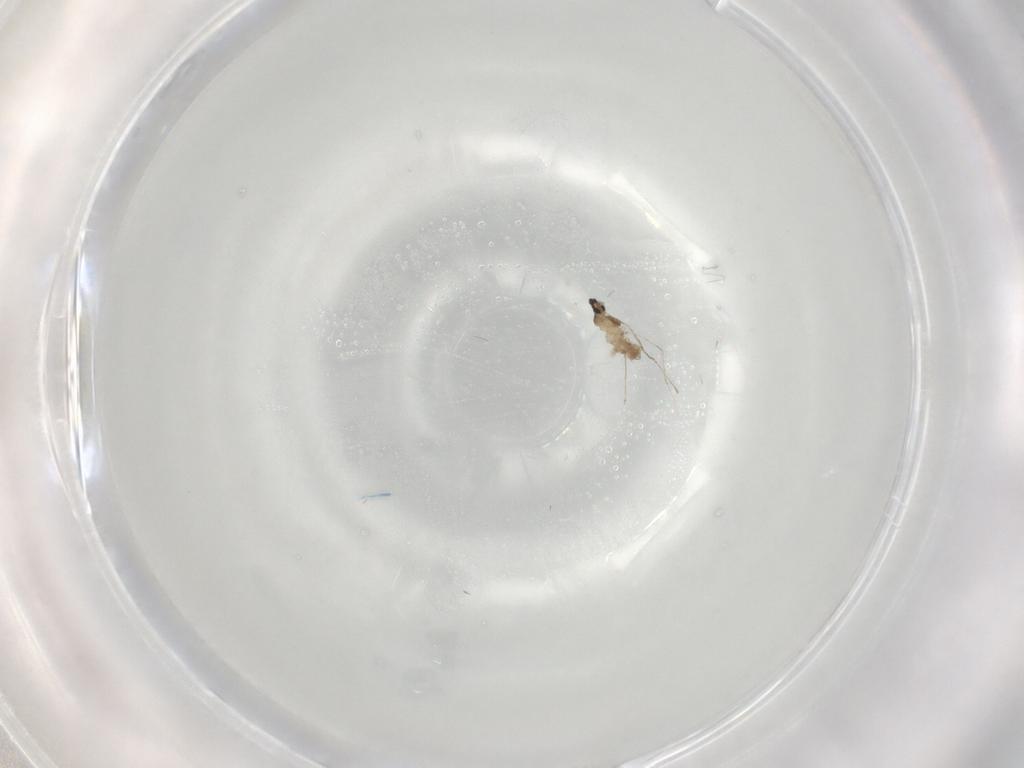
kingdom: Animalia
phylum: Arthropoda
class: Insecta
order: Diptera
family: Cecidomyiidae
